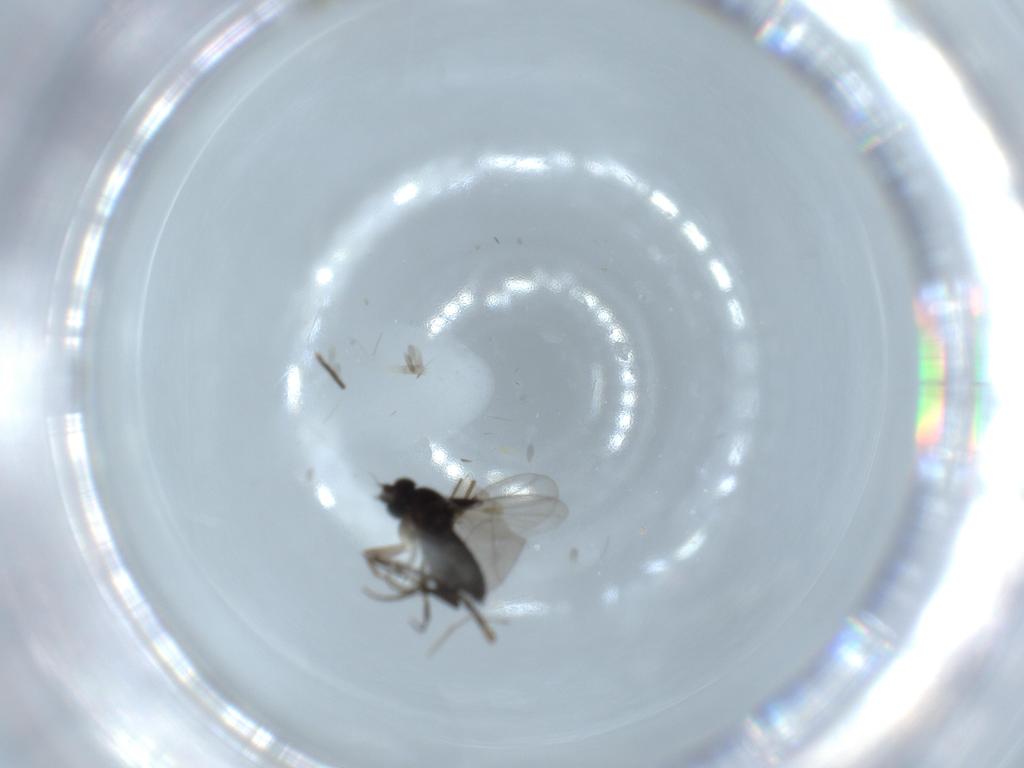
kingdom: Animalia
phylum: Arthropoda
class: Insecta
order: Diptera
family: Phoridae
